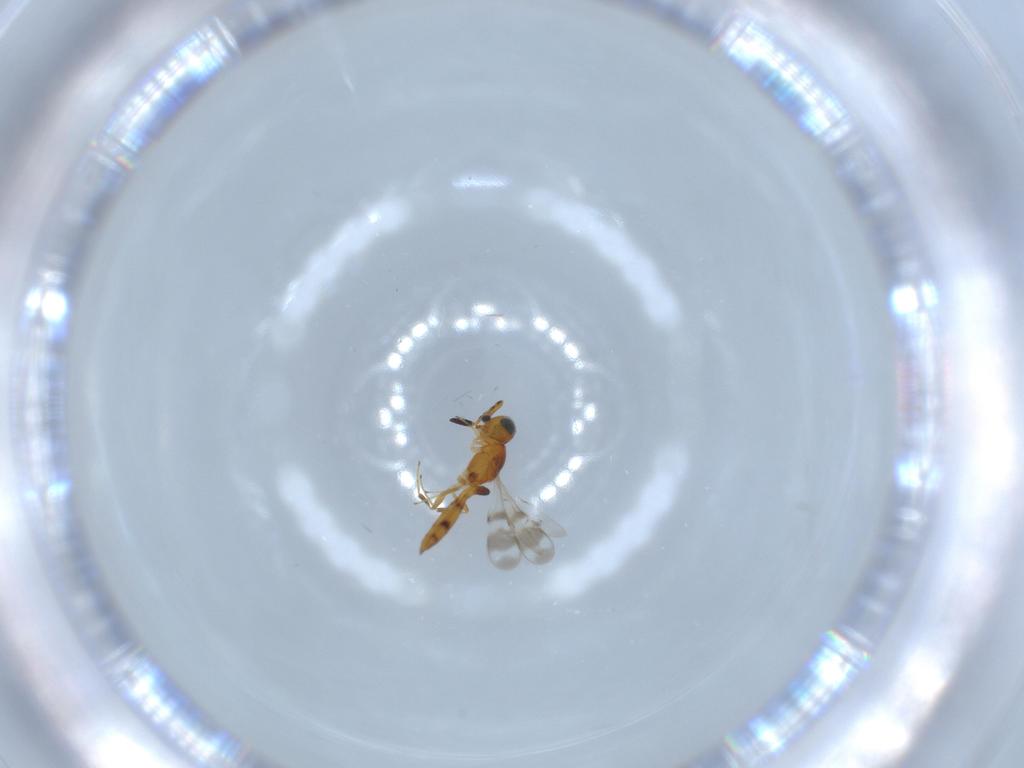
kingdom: Animalia
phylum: Arthropoda
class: Insecta
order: Hymenoptera
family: Scelionidae
